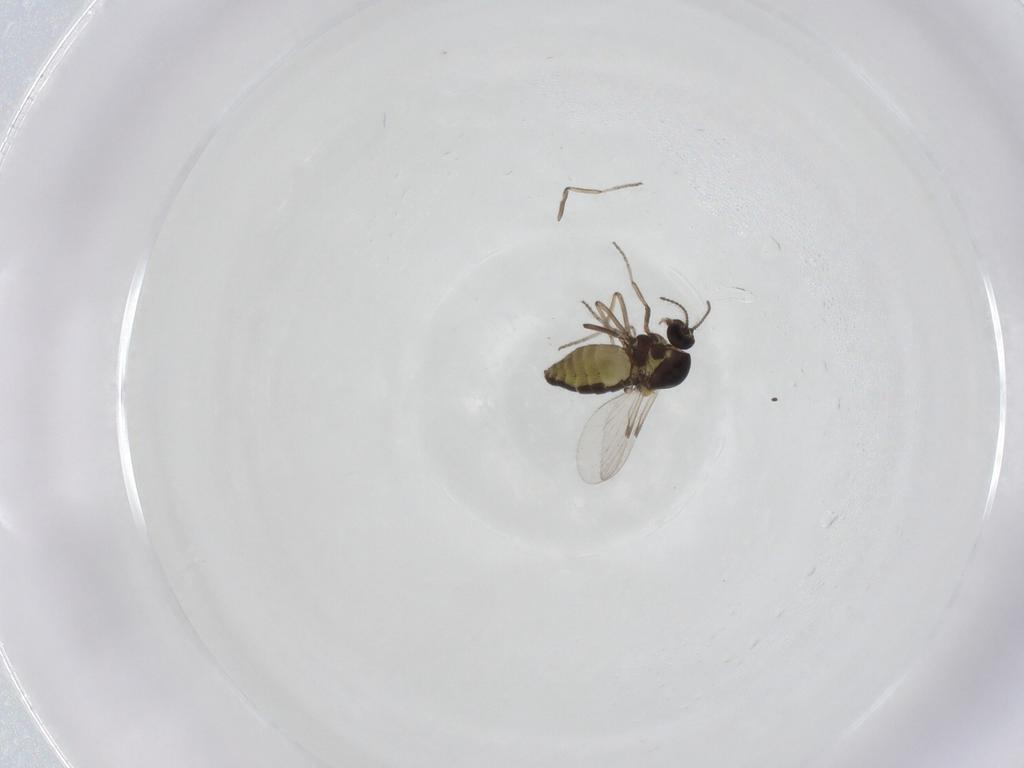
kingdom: Animalia
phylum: Arthropoda
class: Insecta
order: Diptera
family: Ceratopogonidae
